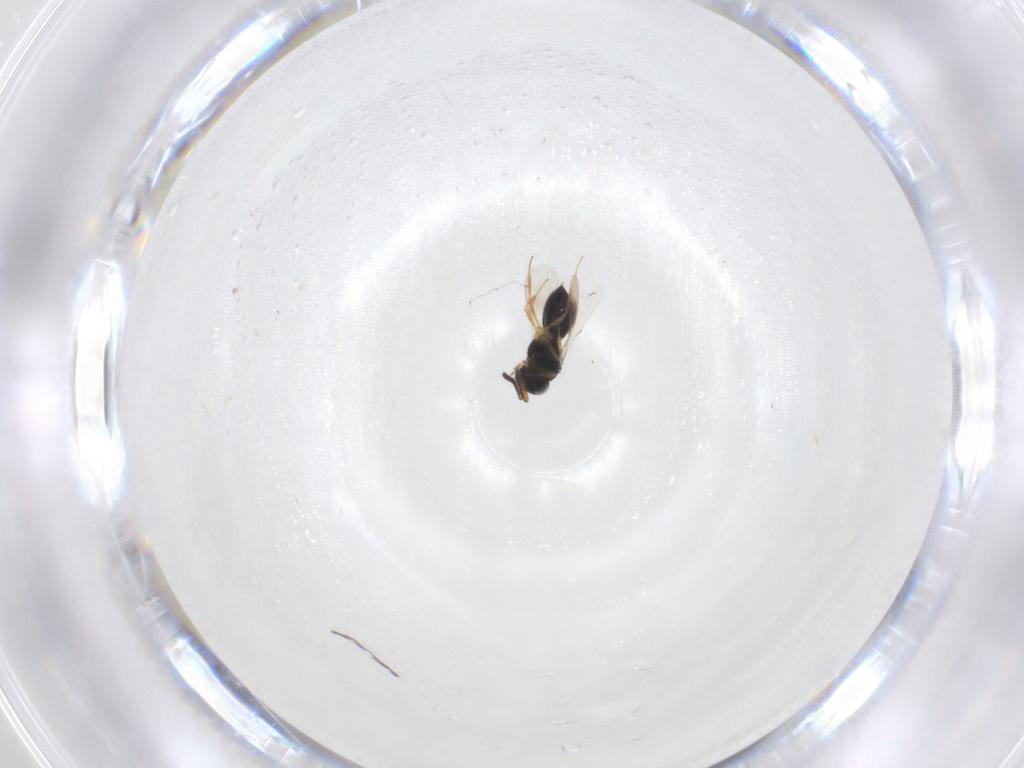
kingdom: Animalia
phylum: Arthropoda
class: Insecta
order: Hymenoptera
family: Scelionidae
